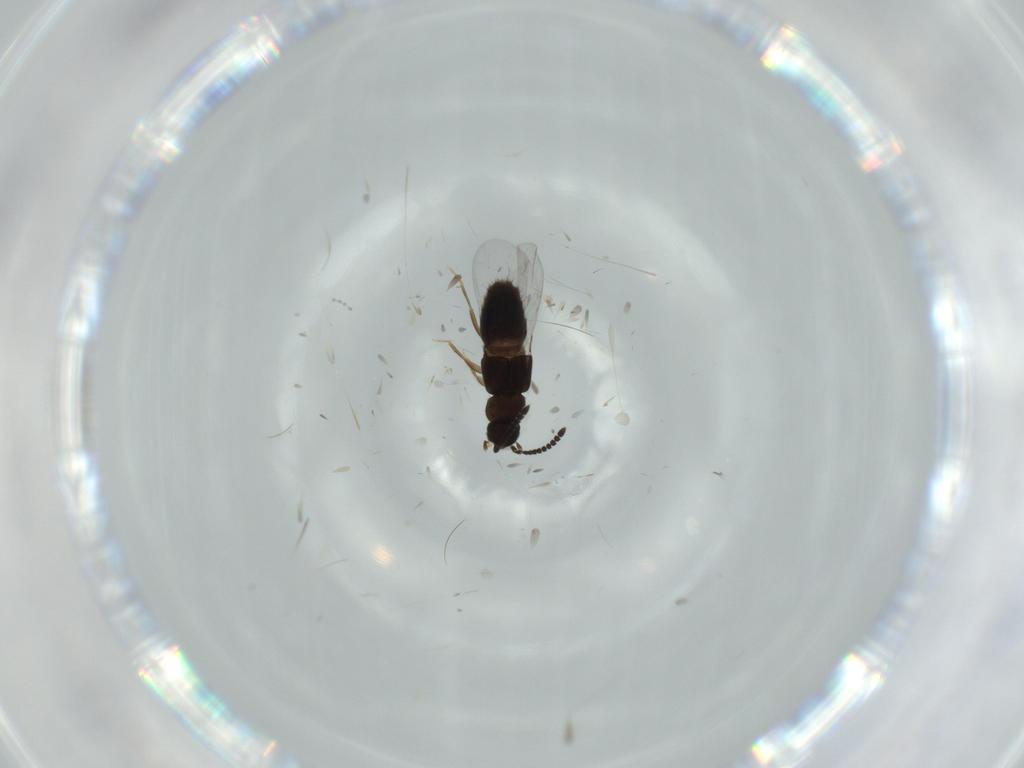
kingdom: Animalia
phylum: Arthropoda
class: Insecta
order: Coleoptera
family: Staphylinidae
